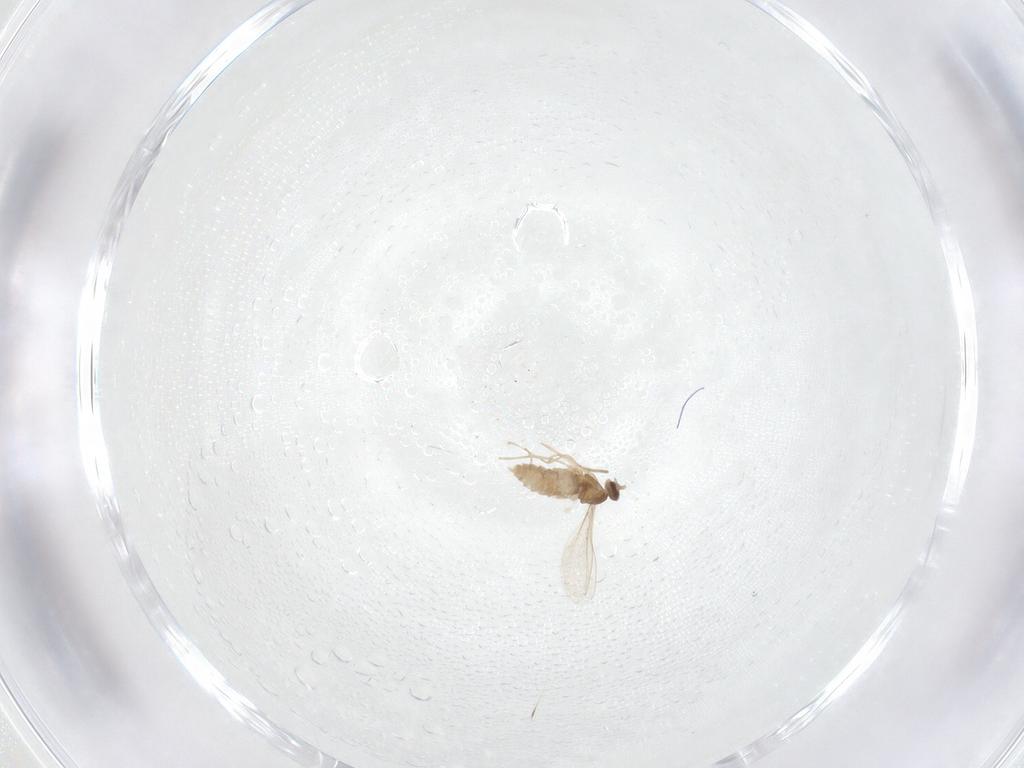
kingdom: Animalia
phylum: Arthropoda
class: Insecta
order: Diptera
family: Cecidomyiidae
